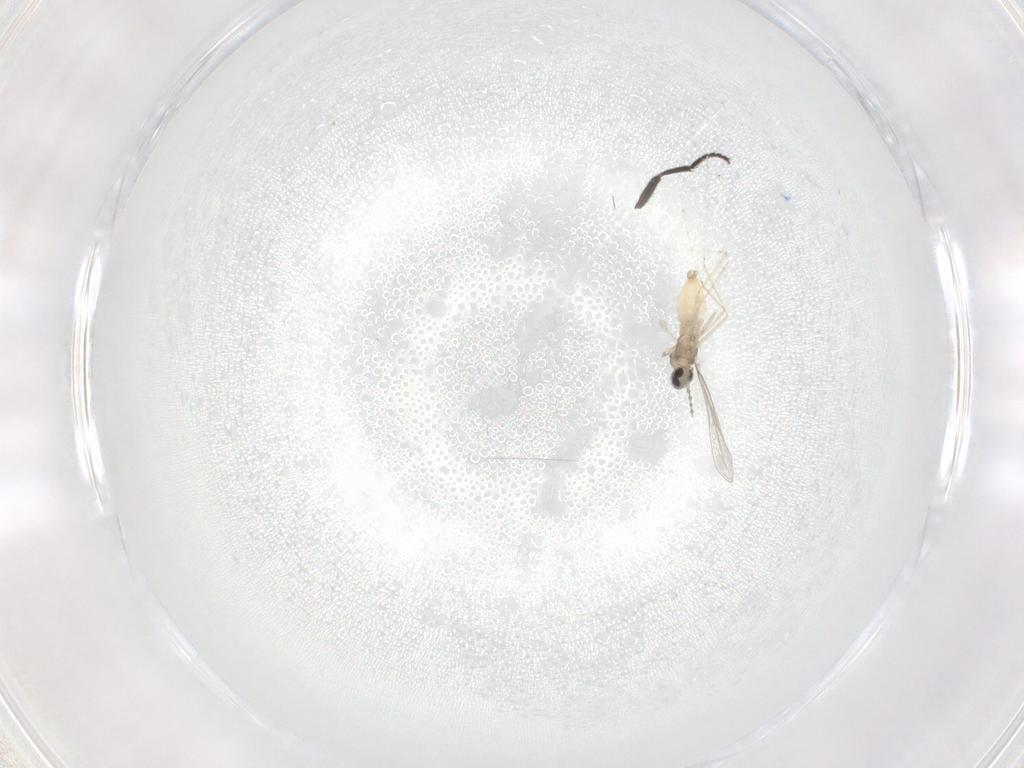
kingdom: Animalia
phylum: Arthropoda
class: Insecta
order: Diptera
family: Cecidomyiidae
